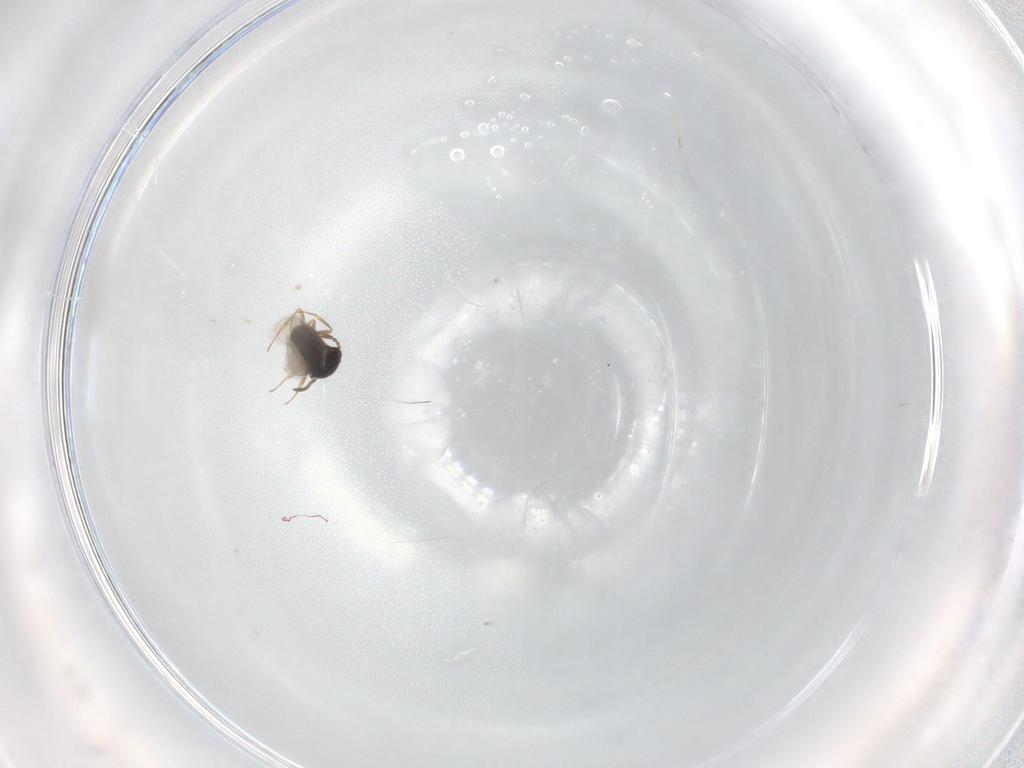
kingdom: Animalia
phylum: Arthropoda
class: Insecta
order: Hymenoptera
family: Scelionidae
